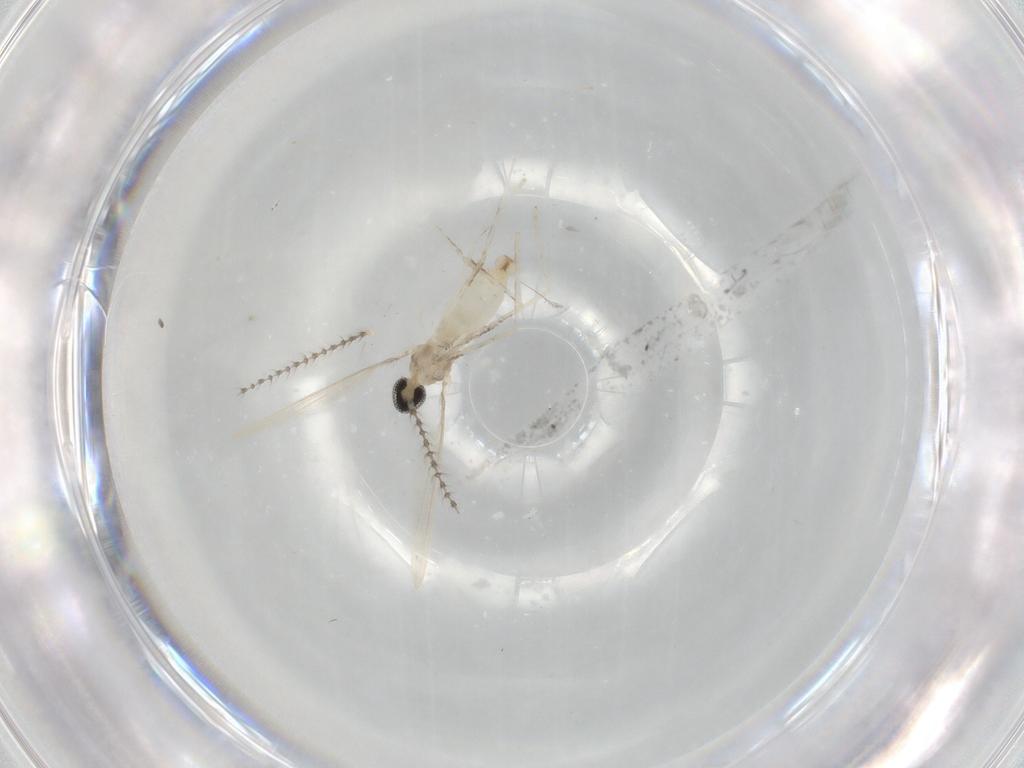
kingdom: Animalia
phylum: Arthropoda
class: Insecta
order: Diptera
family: Cecidomyiidae
